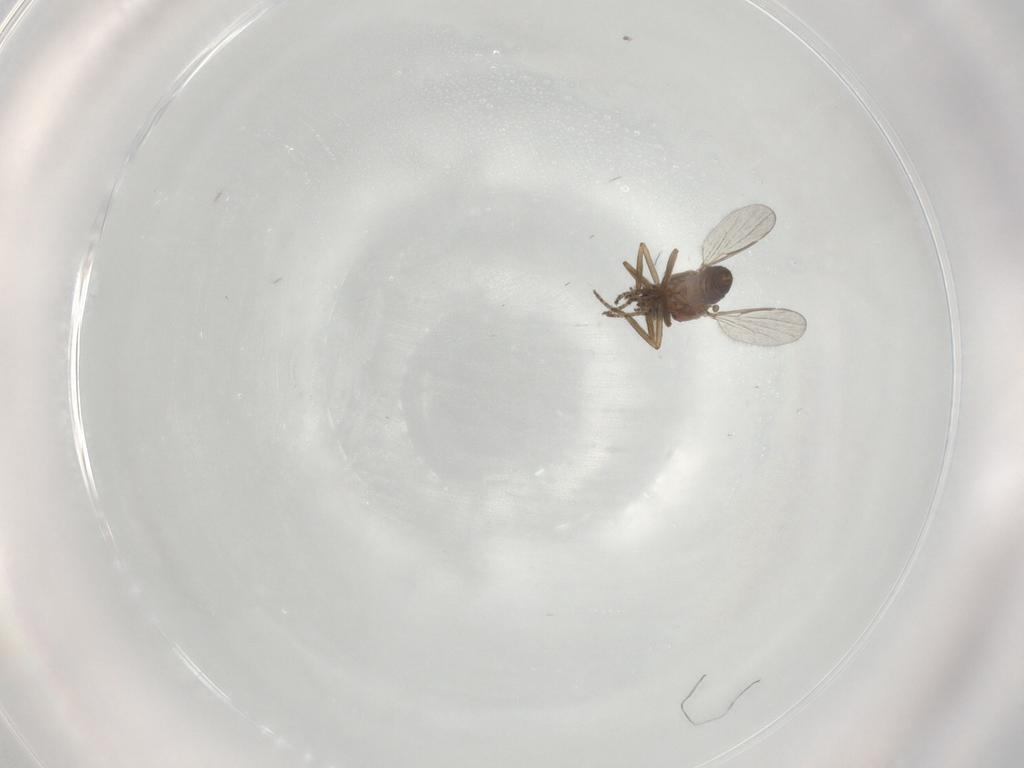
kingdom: Animalia
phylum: Arthropoda
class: Insecta
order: Diptera
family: Ceratopogonidae
